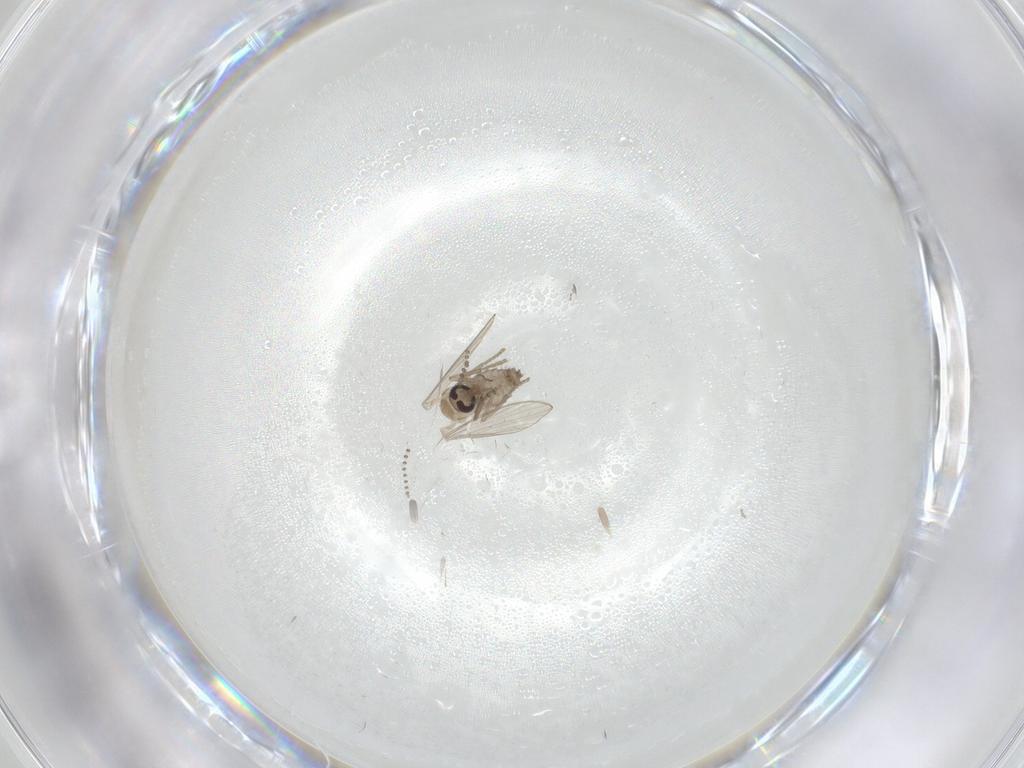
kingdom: Animalia
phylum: Arthropoda
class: Insecta
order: Diptera
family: Psychodidae
